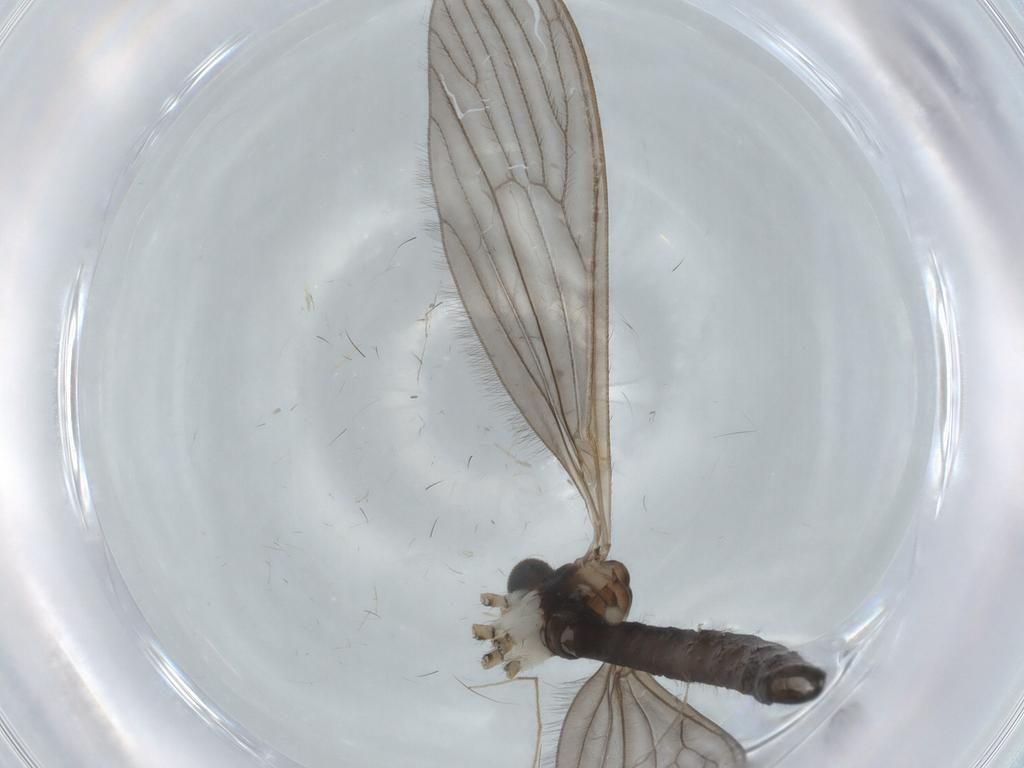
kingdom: Animalia
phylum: Arthropoda
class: Insecta
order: Diptera
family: Chironomidae
